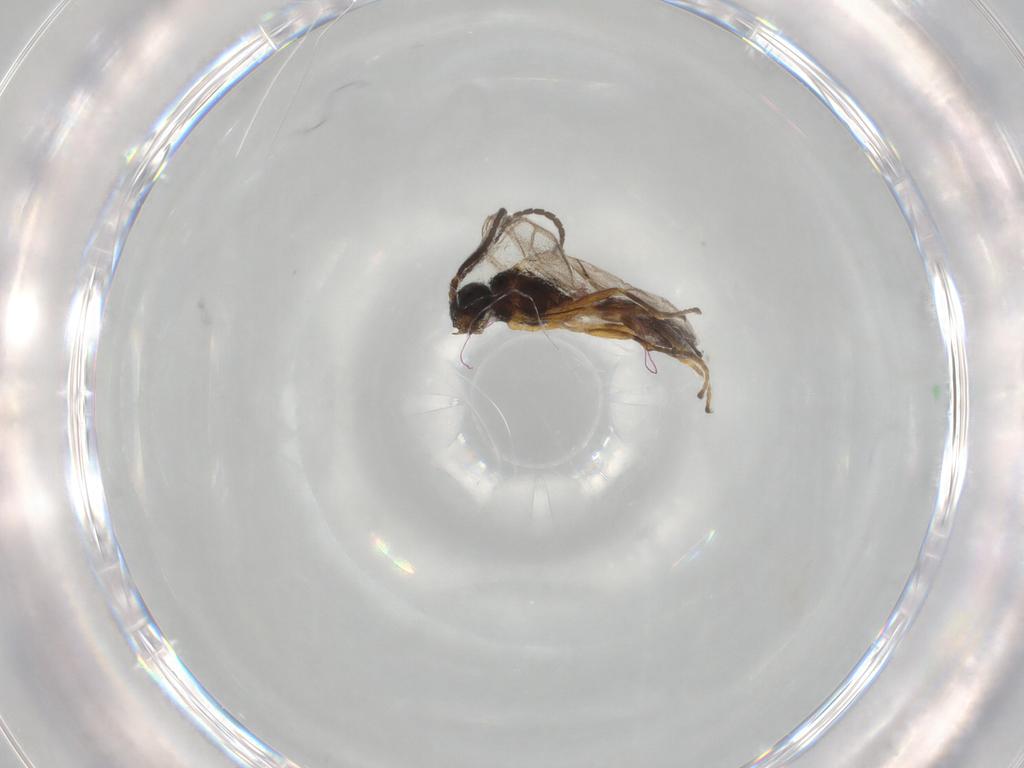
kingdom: Animalia
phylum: Arthropoda
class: Insecta
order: Hymenoptera
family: Braconidae
